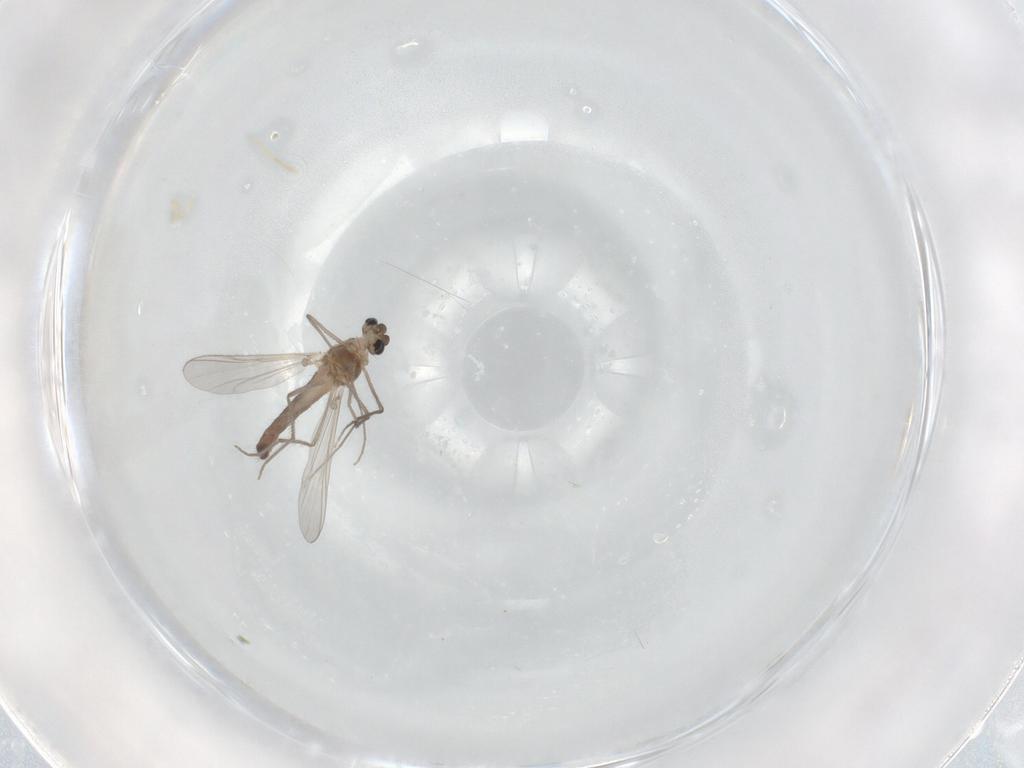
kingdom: Animalia
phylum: Arthropoda
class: Insecta
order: Diptera
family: Chironomidae
